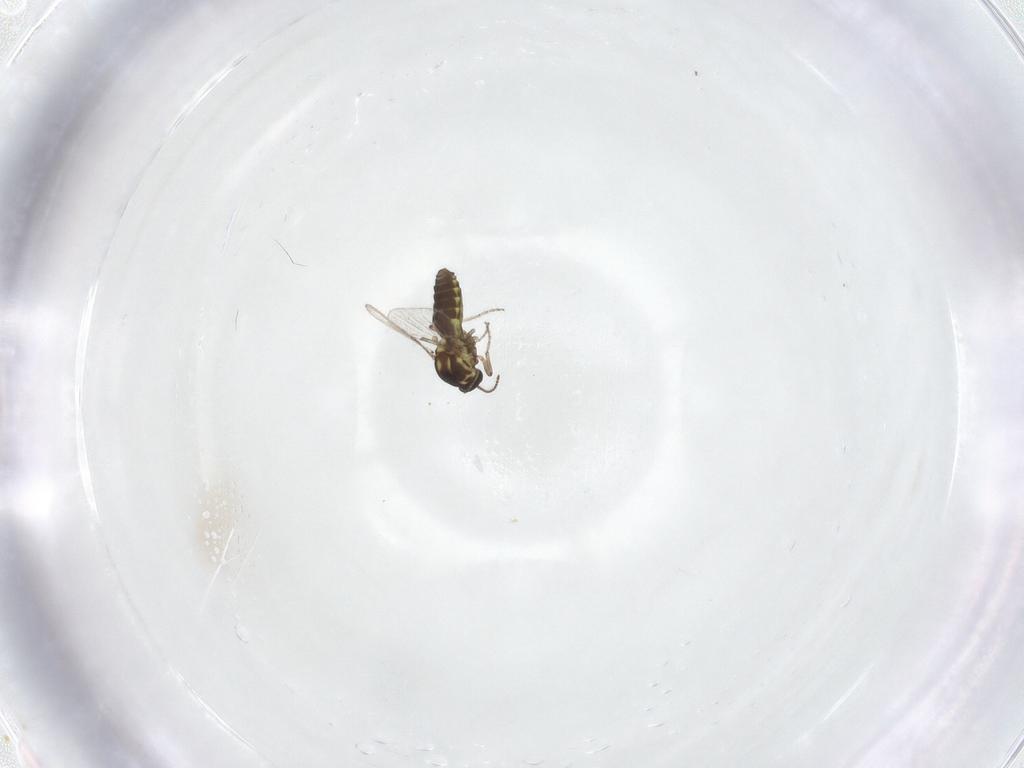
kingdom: Animalia
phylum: Arthropoda
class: Insecta
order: Diptera
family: Ceratopogonidae
